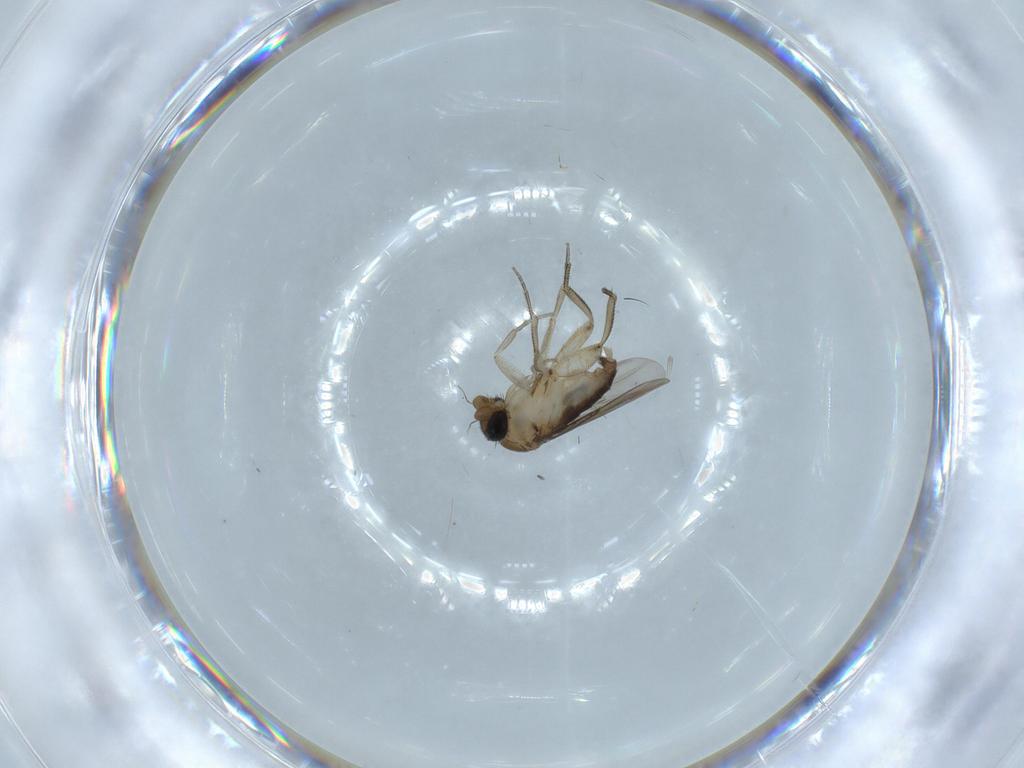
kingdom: Animalia
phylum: Arthropoda
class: Insecta
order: Diptera
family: Phoridae
